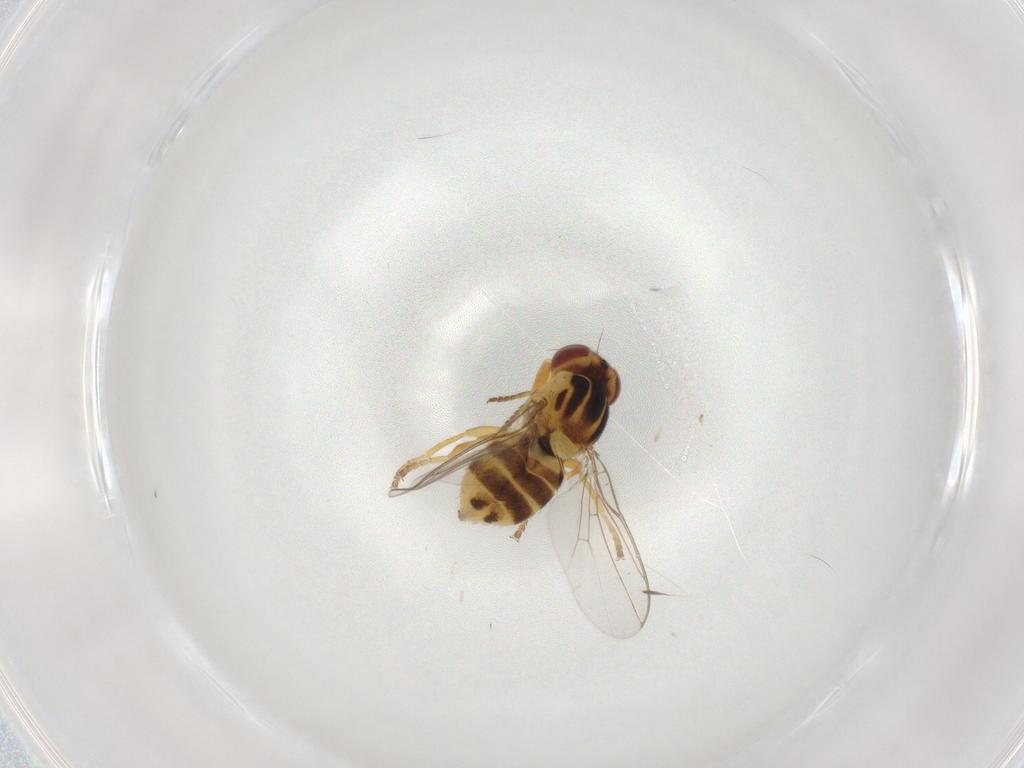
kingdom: Animalia
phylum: Arthropoda
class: Insecta
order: Diptera
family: Chloropidae
